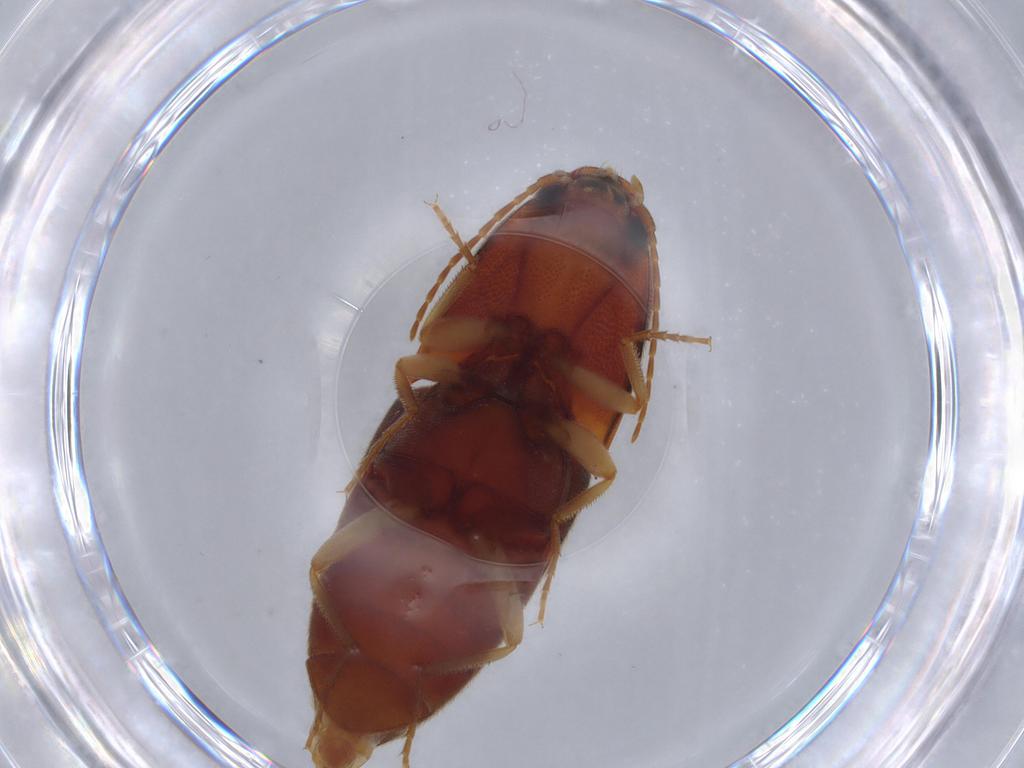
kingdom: Animalia
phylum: Arthropoda
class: Insecta
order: Coleoptera
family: Elateridae
